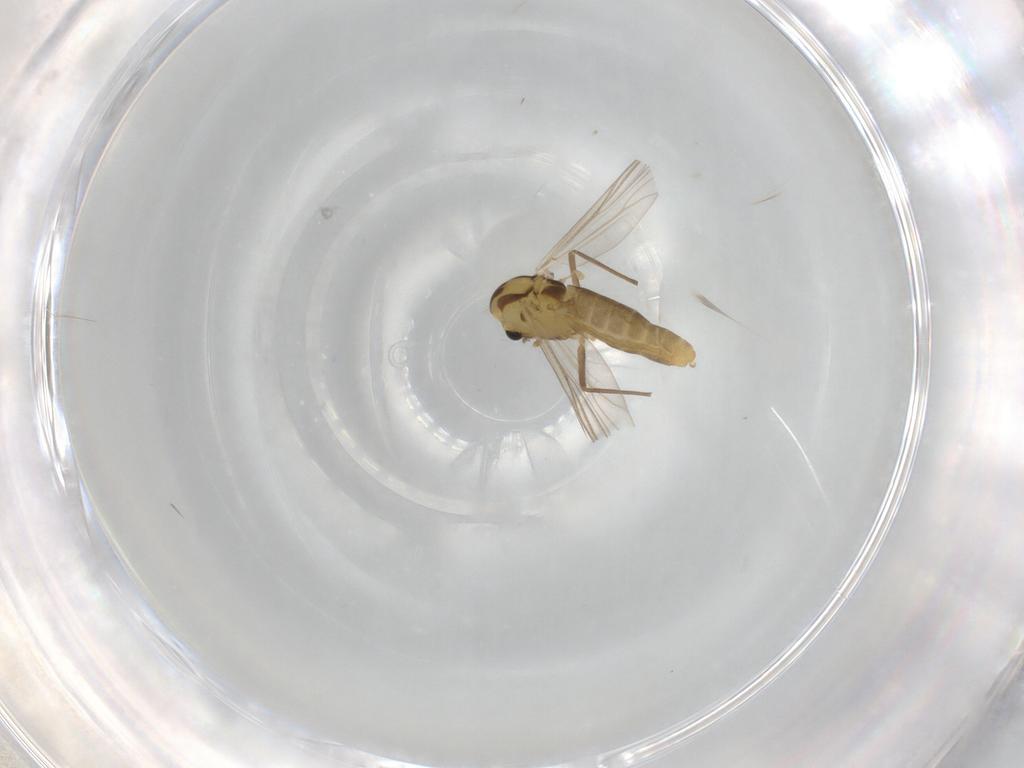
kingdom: Animalia
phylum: Arthropoda
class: Insecta
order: Diptera
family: Chironomidae
